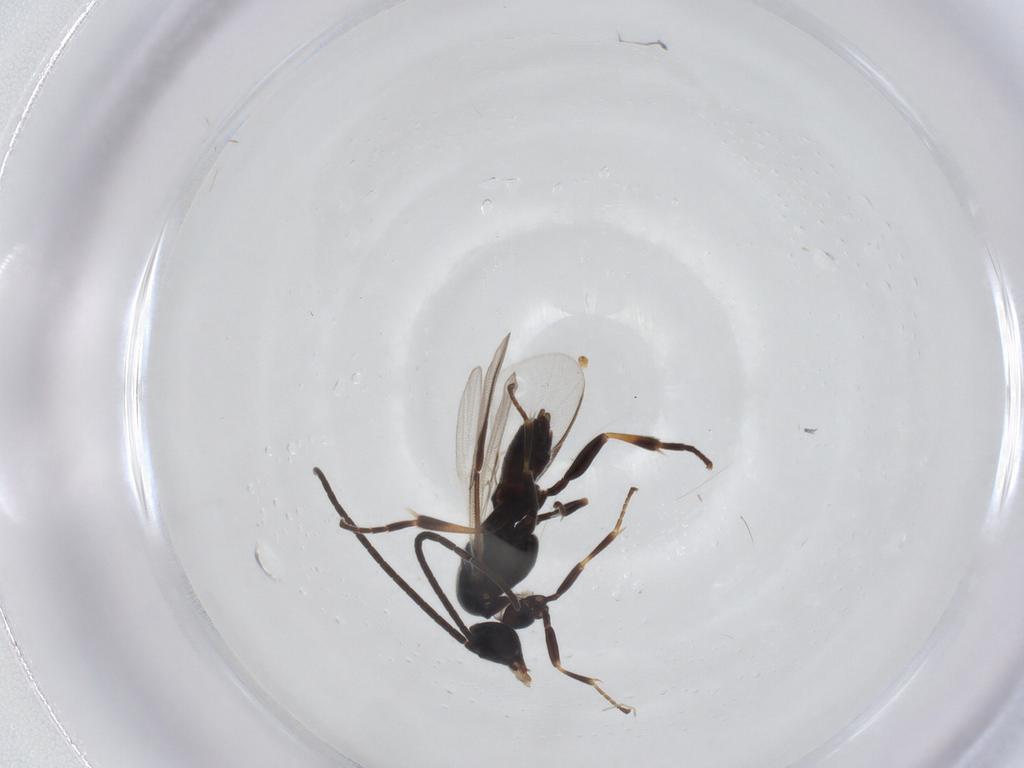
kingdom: Animalia
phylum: Arthropoda
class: Insecta
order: Hymenoptera
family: Braconidae
